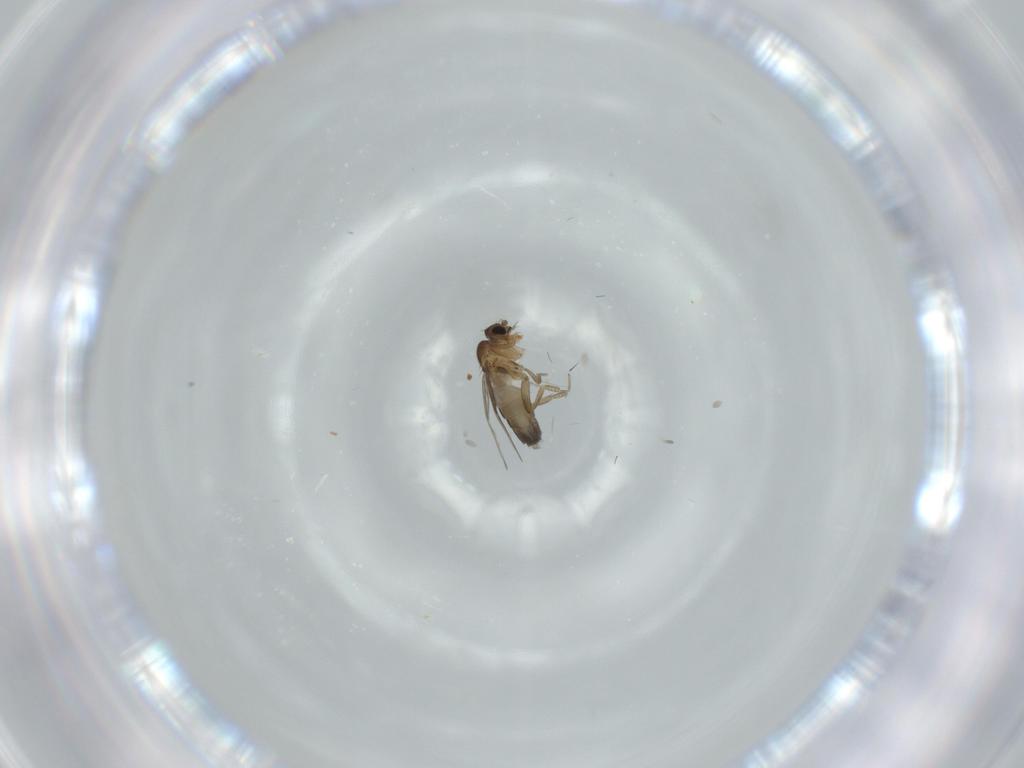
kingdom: Animalia
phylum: Arthropoda
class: Insecta
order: Diptera
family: Phoridae
